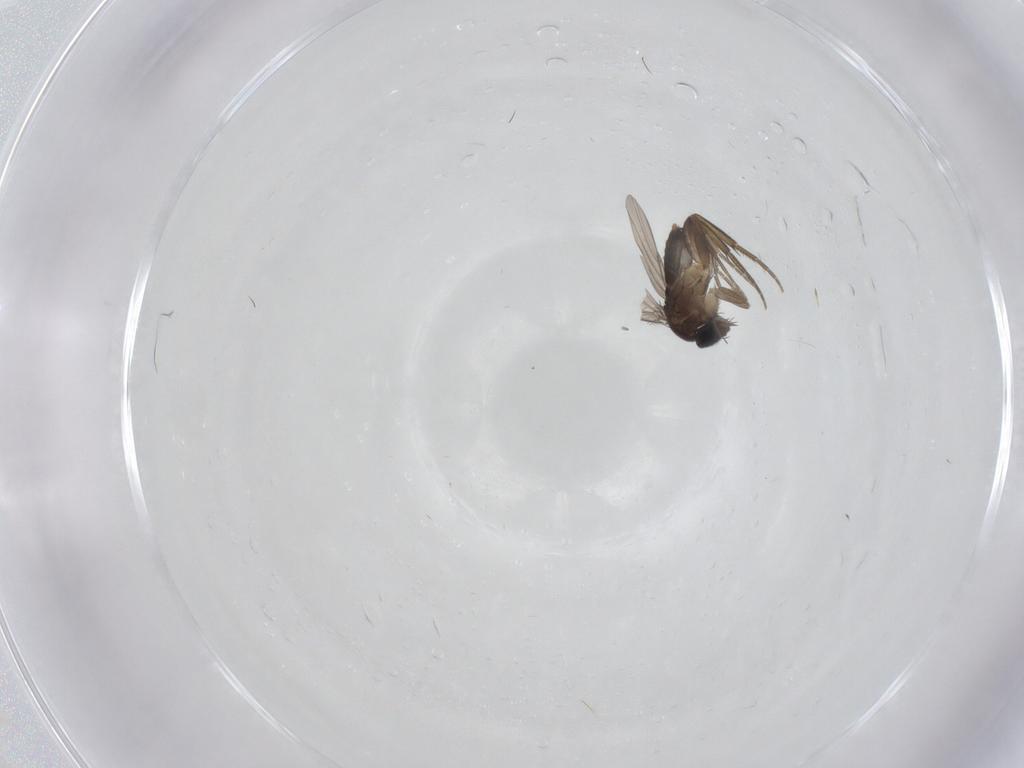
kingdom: Animalia
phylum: Arthropoda
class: Insecta
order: Diptera
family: Phoridae
